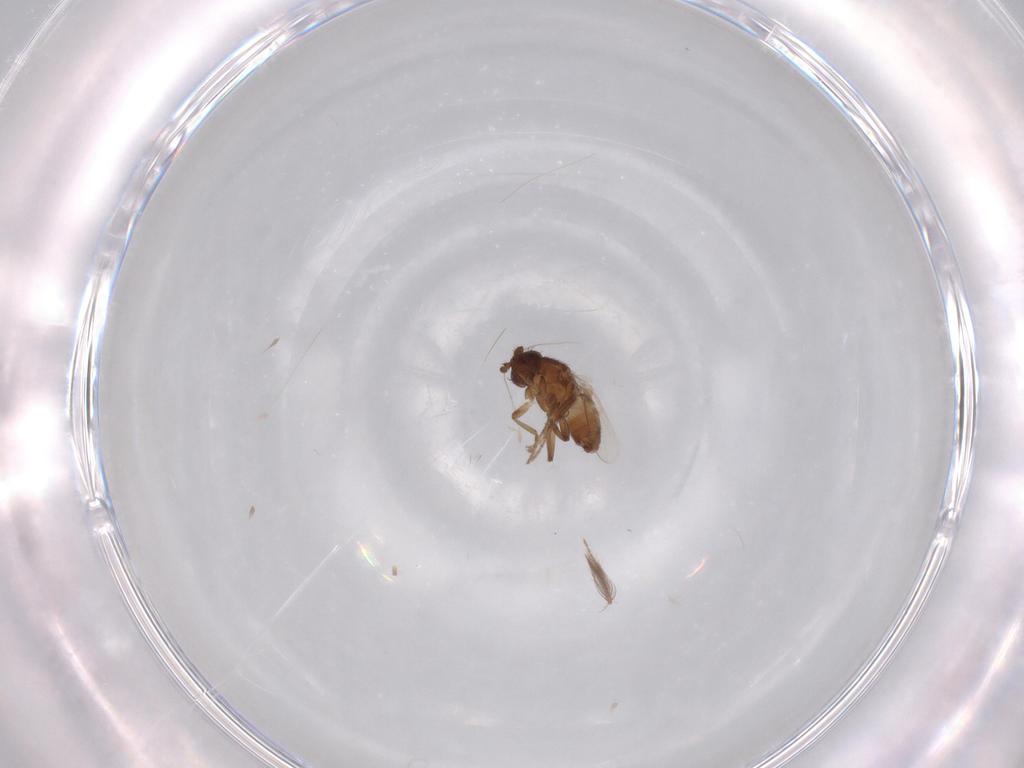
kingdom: Animalia
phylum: Arthropoda
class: Insecta
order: Diptera
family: Sphaeroceridae
